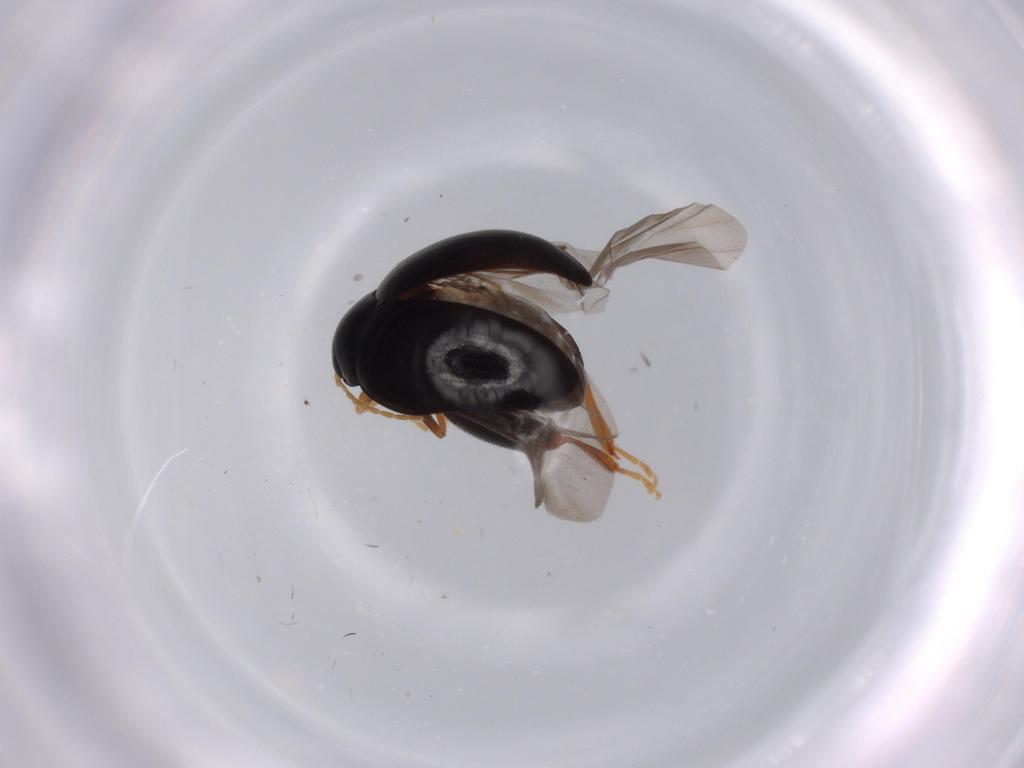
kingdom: Animalia
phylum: Arthropoda
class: Insecta
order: Coleoptera
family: Chrysomelidae
